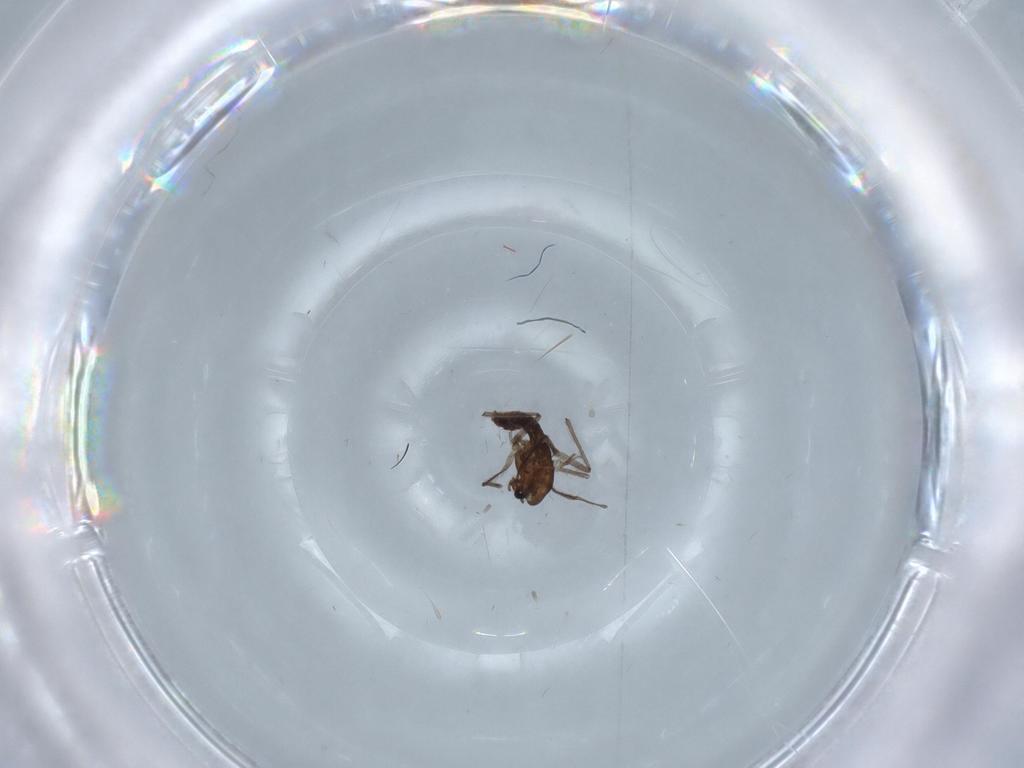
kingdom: Animalia
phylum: Arthropoda
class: Insecta
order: Diptera
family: Chironomidae
